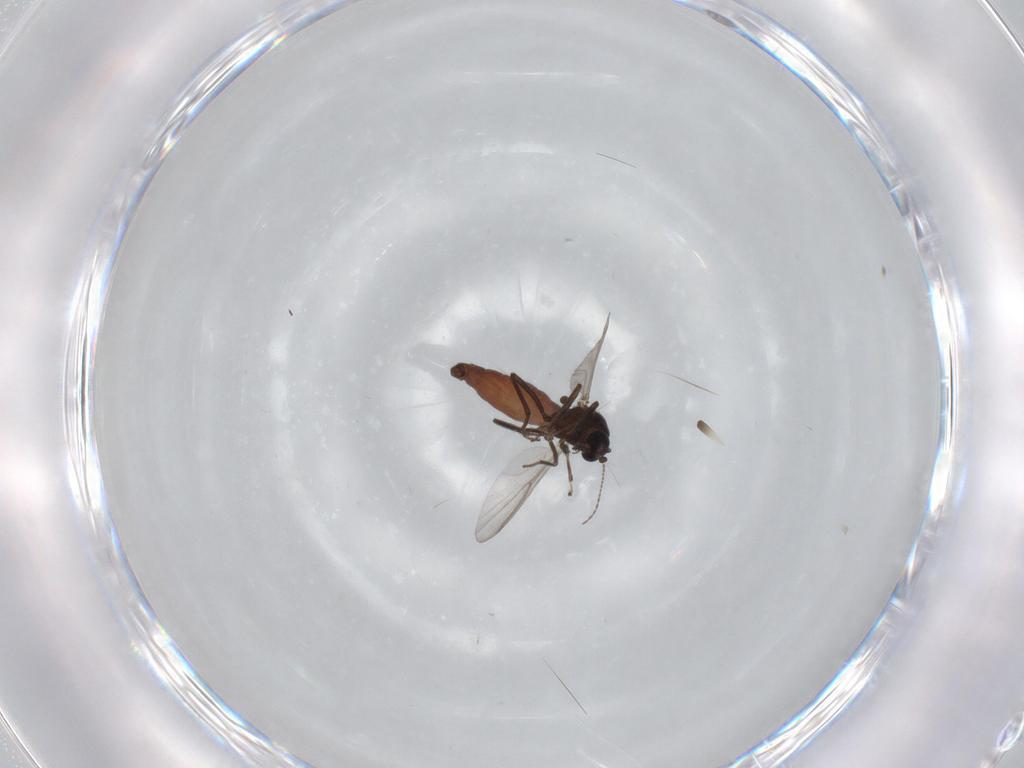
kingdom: Animalia
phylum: Arthropoda
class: Insecta
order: Diptera
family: Ceratopogonidae
